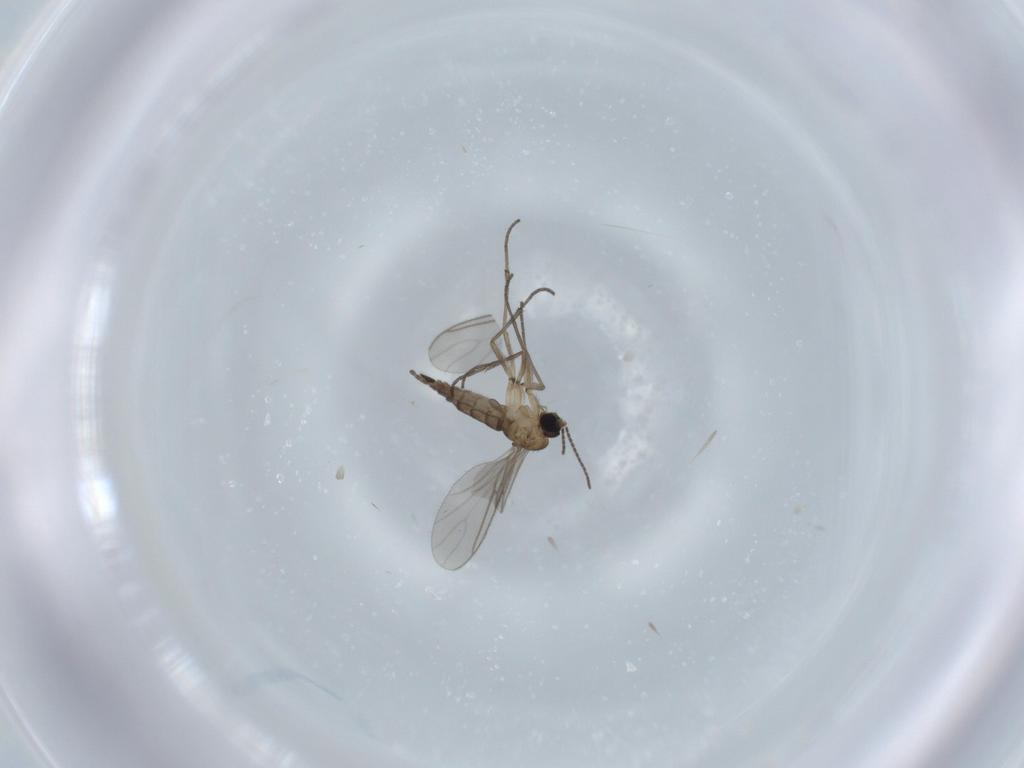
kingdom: Animalia
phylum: Arthropoda
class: Insecta
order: Diptera
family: Sciaridae
